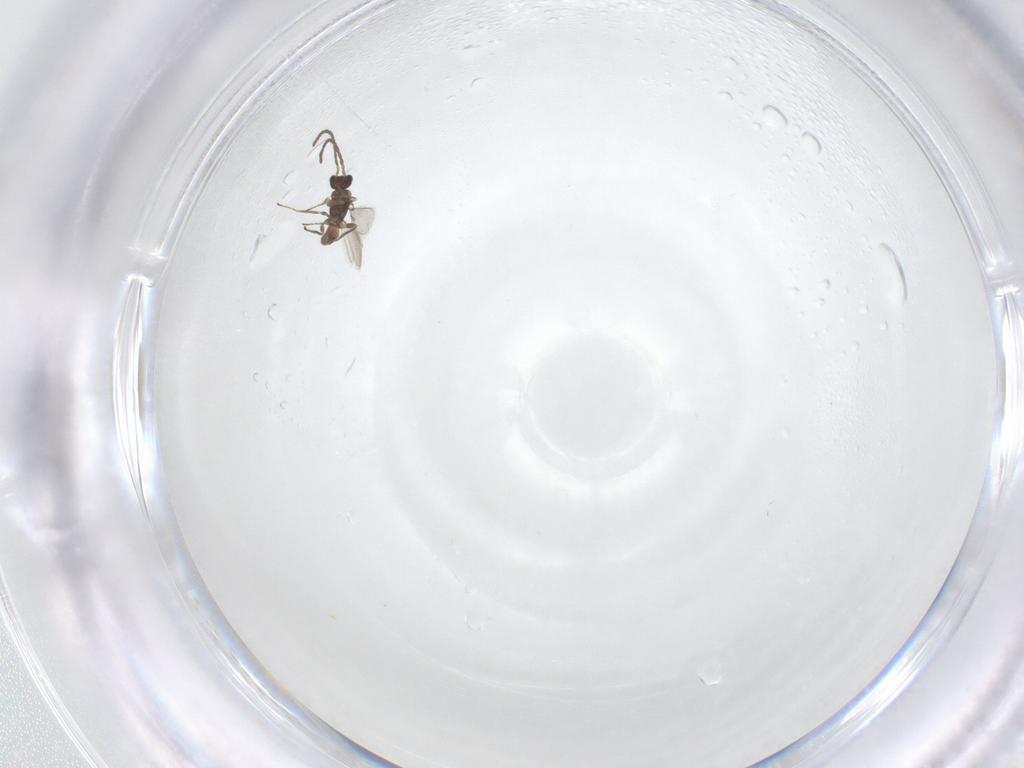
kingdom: Animalia
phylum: Arthropoda
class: Insecta
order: Hymenoptera
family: Mymaridae
